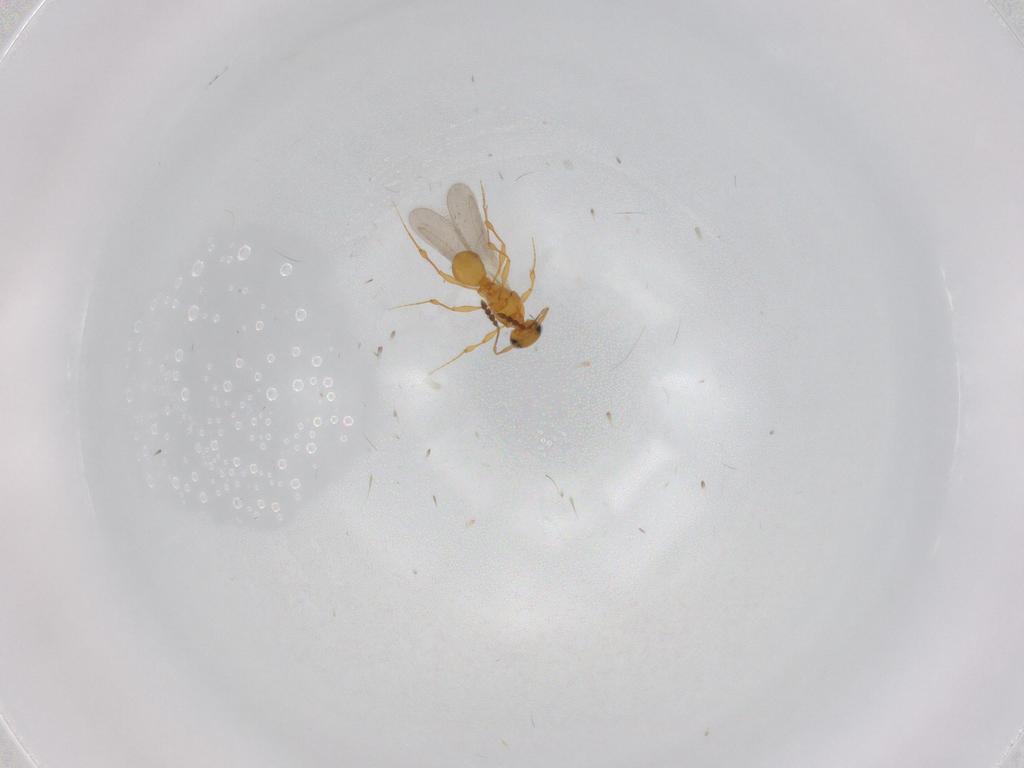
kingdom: Animalia
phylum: Arthropoda
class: Insecta
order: Hymenoptera
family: Platygastridae
